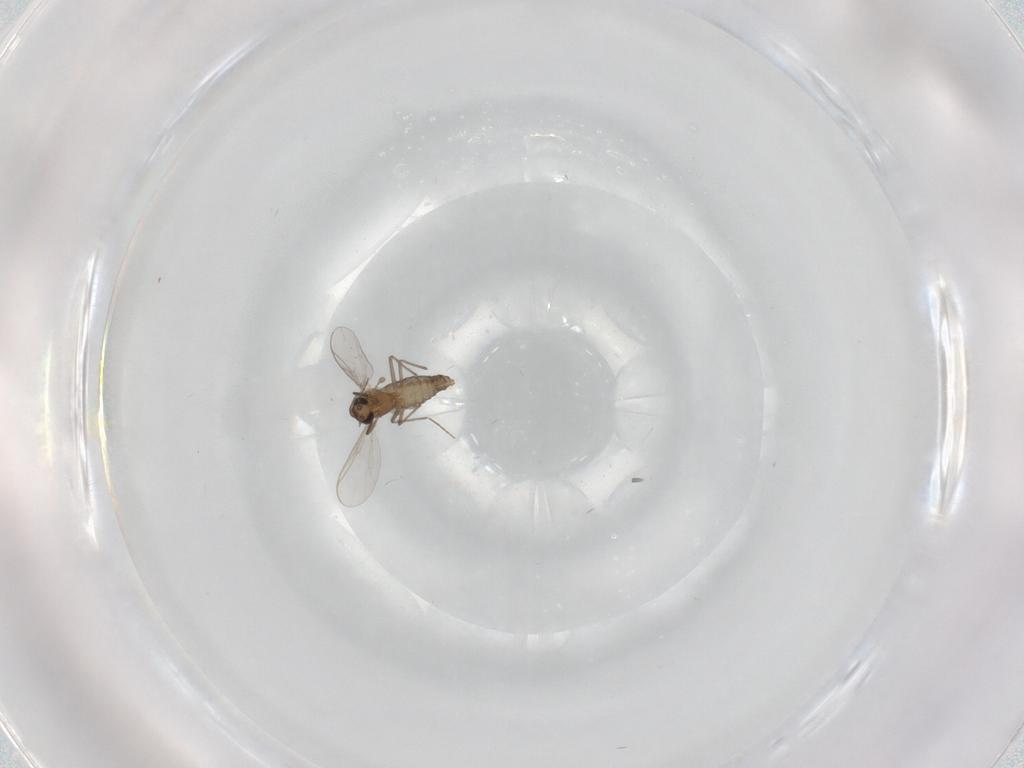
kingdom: Animalia
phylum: Arthropoda
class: Insecta
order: Diptera
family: Chironomidae
